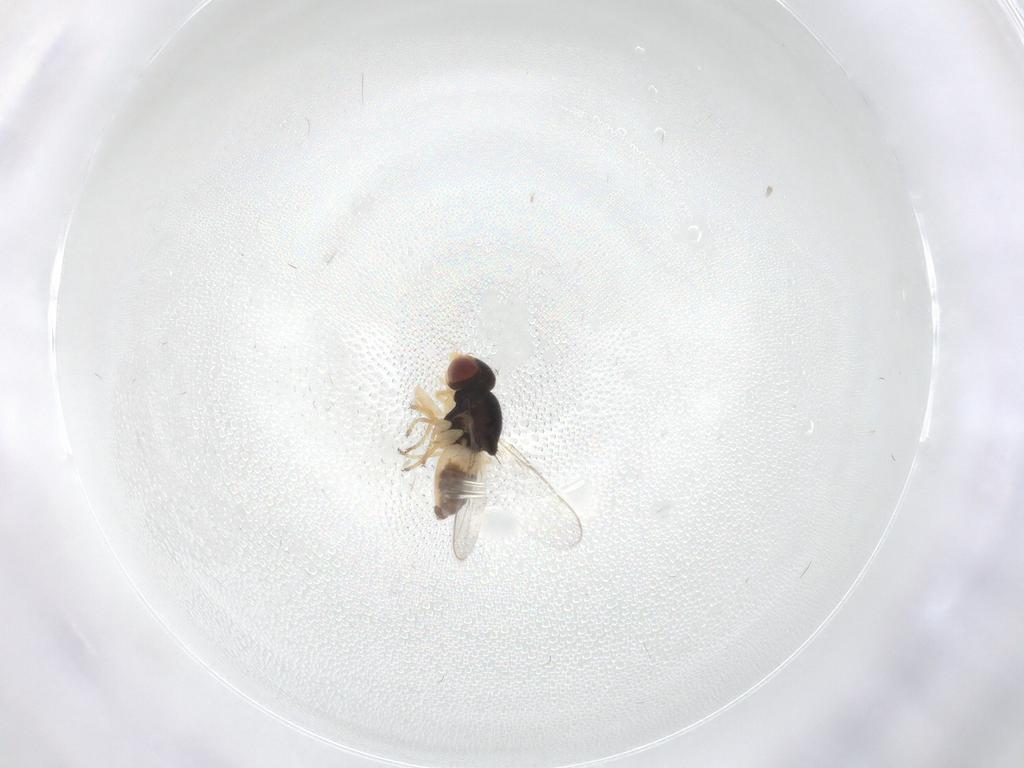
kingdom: Animalia
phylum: Arthropoda
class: Insecta
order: Diptera
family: Chloropidae
